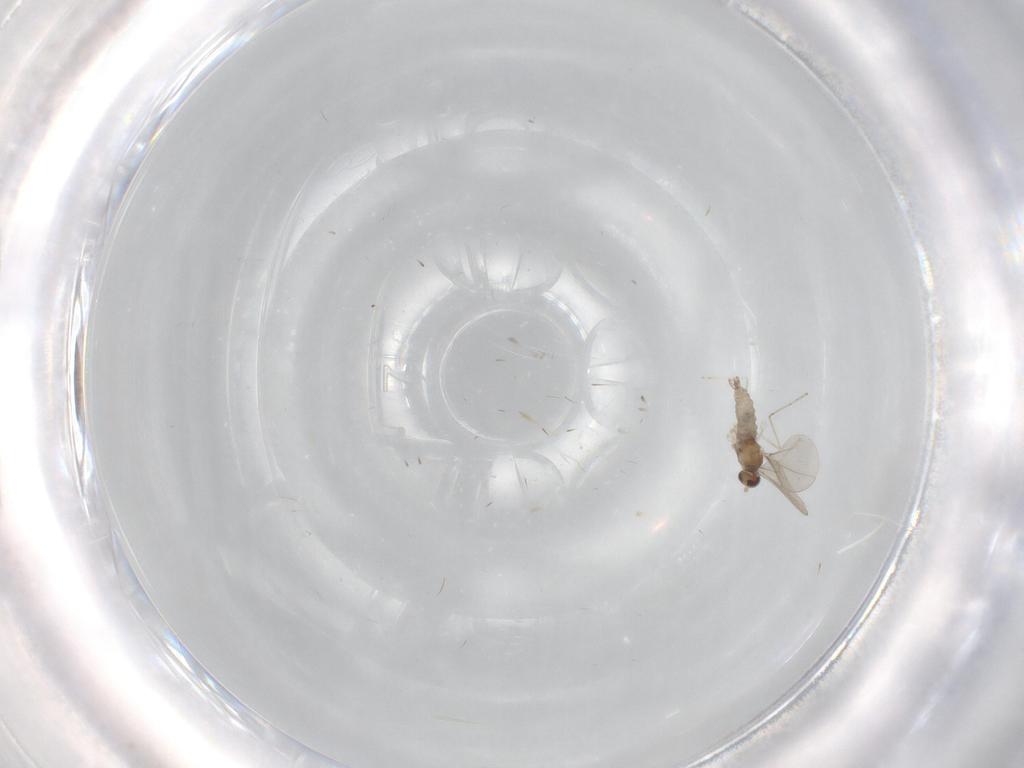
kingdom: Animalia
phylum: Arthropoda
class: Insecta
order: Diptera
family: Cecidomyiidae
